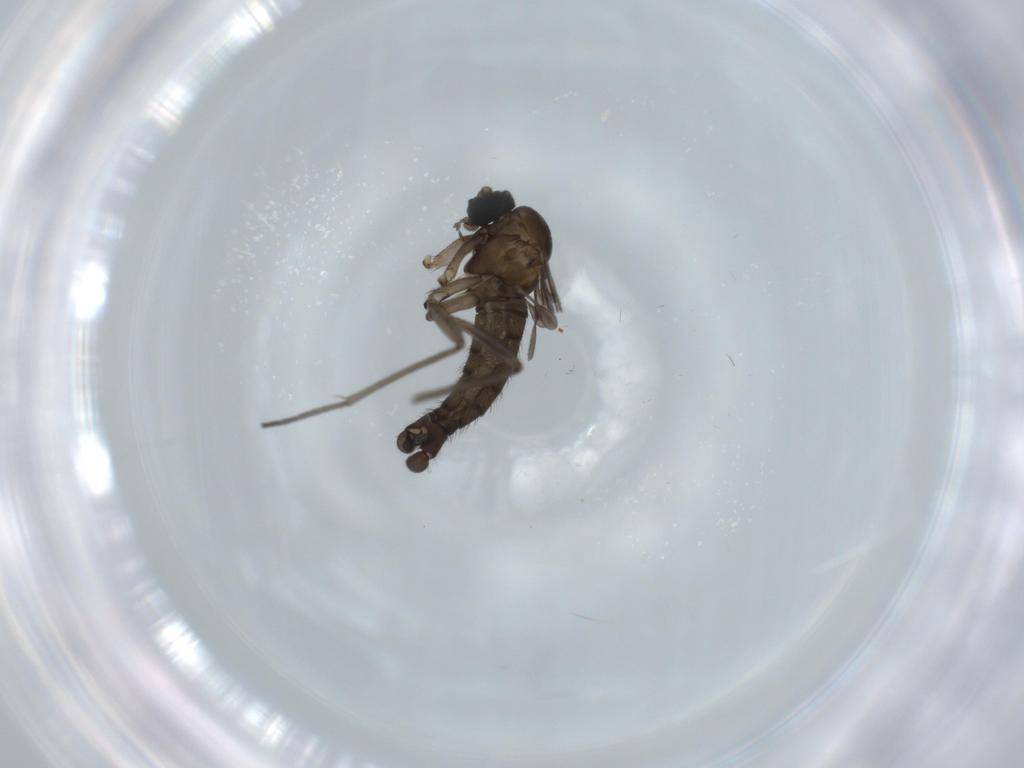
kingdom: Animalia
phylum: Arthropoda
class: Insecta
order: Diptera
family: Sciaridae
